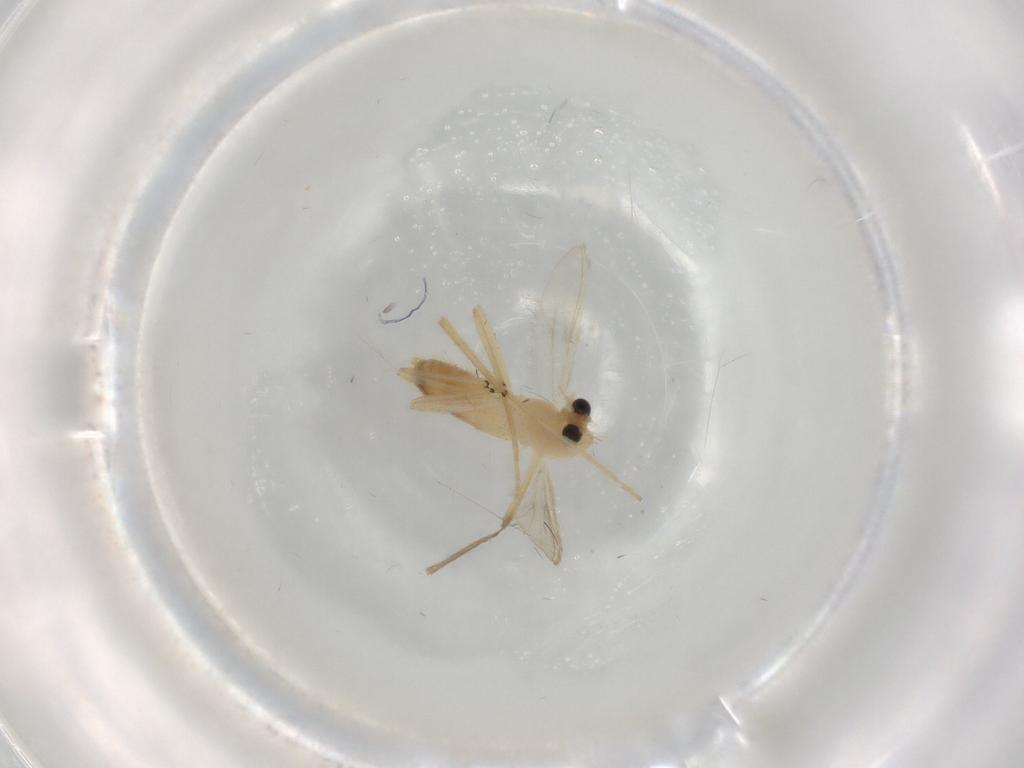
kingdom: Animalia
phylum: Arthropoda
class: Insecta
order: Diptera
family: Chironomidae
